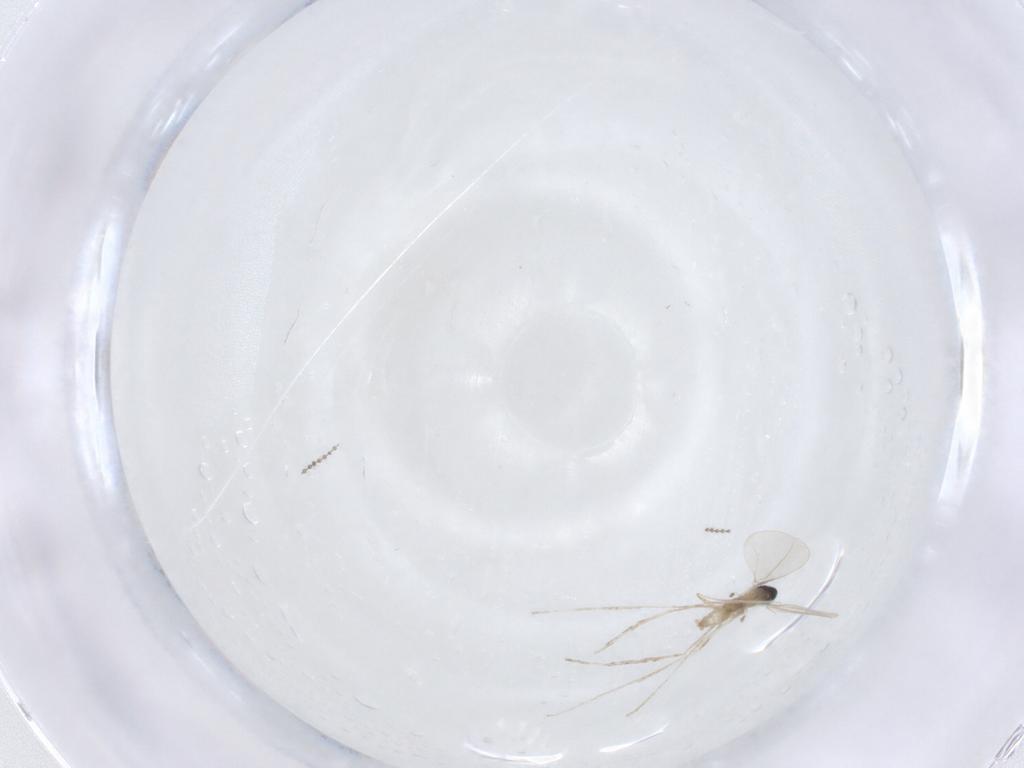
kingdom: Animalia
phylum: Arthropoda
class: Insecta
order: Diptera
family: Cecidomyiidae
